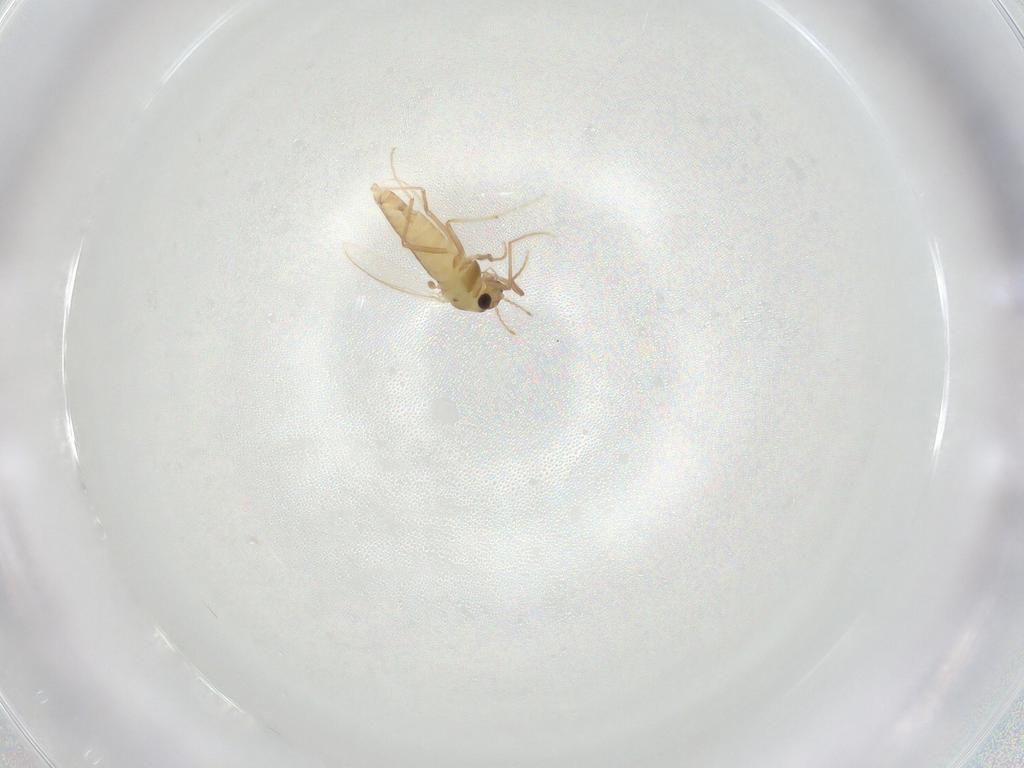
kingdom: Animalia
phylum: Arthropoda
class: Insecta
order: Diptera
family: Chironomidae
